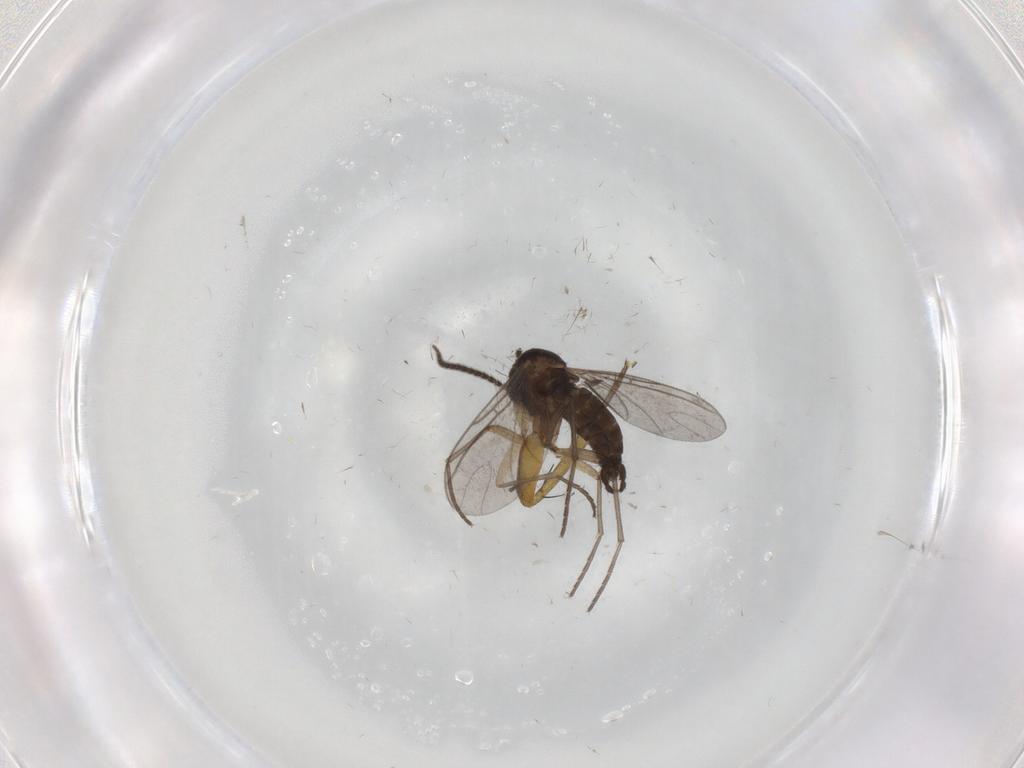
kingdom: Animalia
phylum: Arthropoda
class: Insecta
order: Diptera
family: Sciaridae
